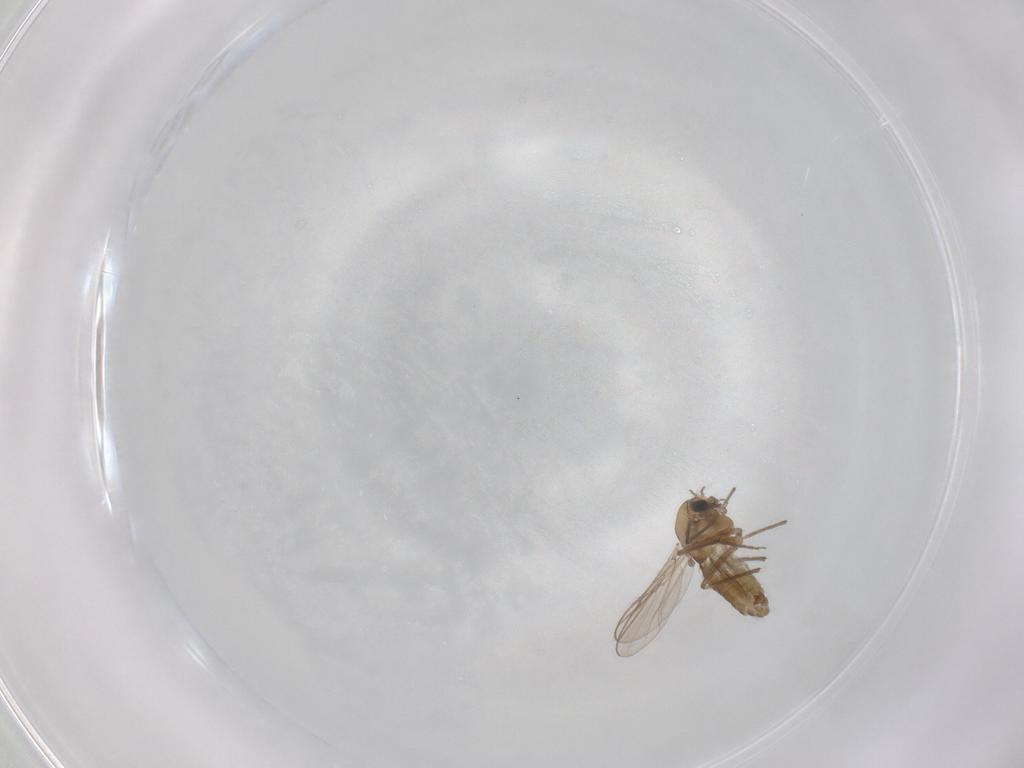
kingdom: Animalia
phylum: Arthropoda
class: Insecta
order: Diptera
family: Chironomidae
